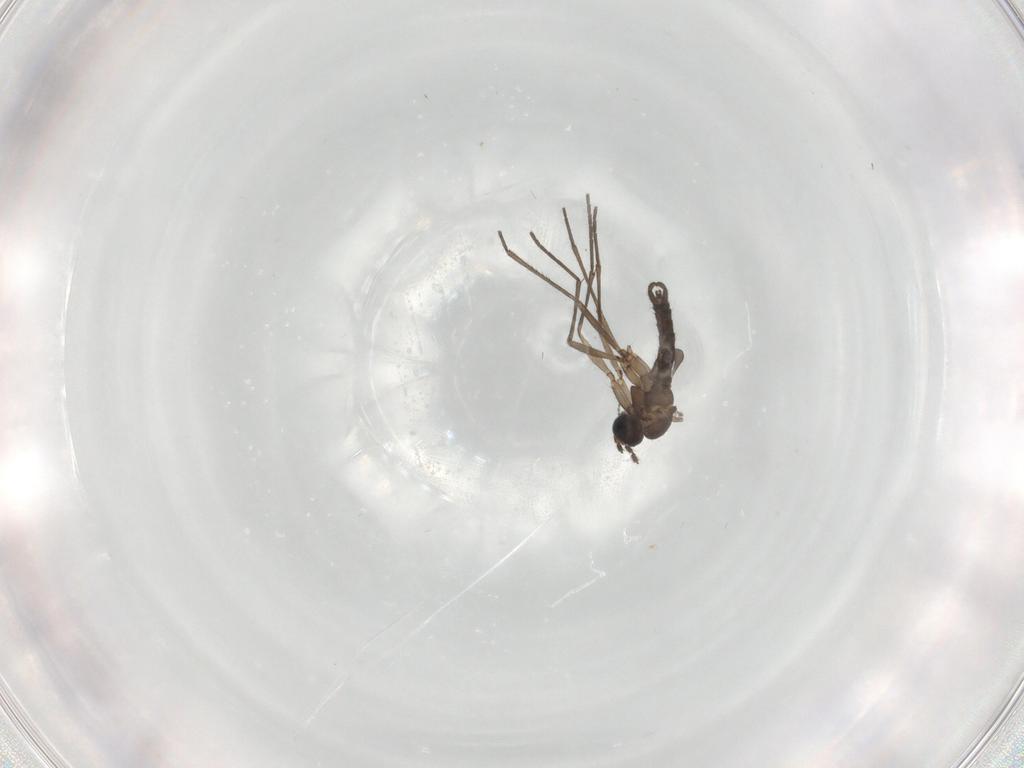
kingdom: Animalia
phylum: Arthropoda
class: Insecta
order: Diptera
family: Sciaridae
